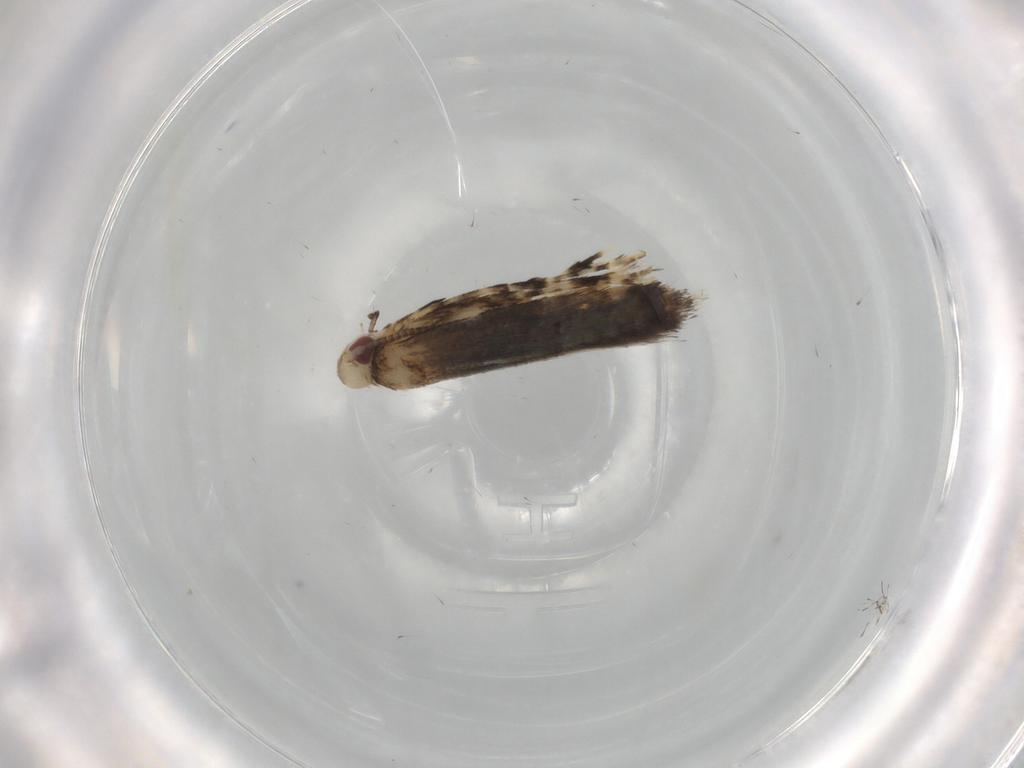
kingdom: Animalia
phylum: Arthropoda
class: Insecta
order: Lepidoptera
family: Gracillariidae
